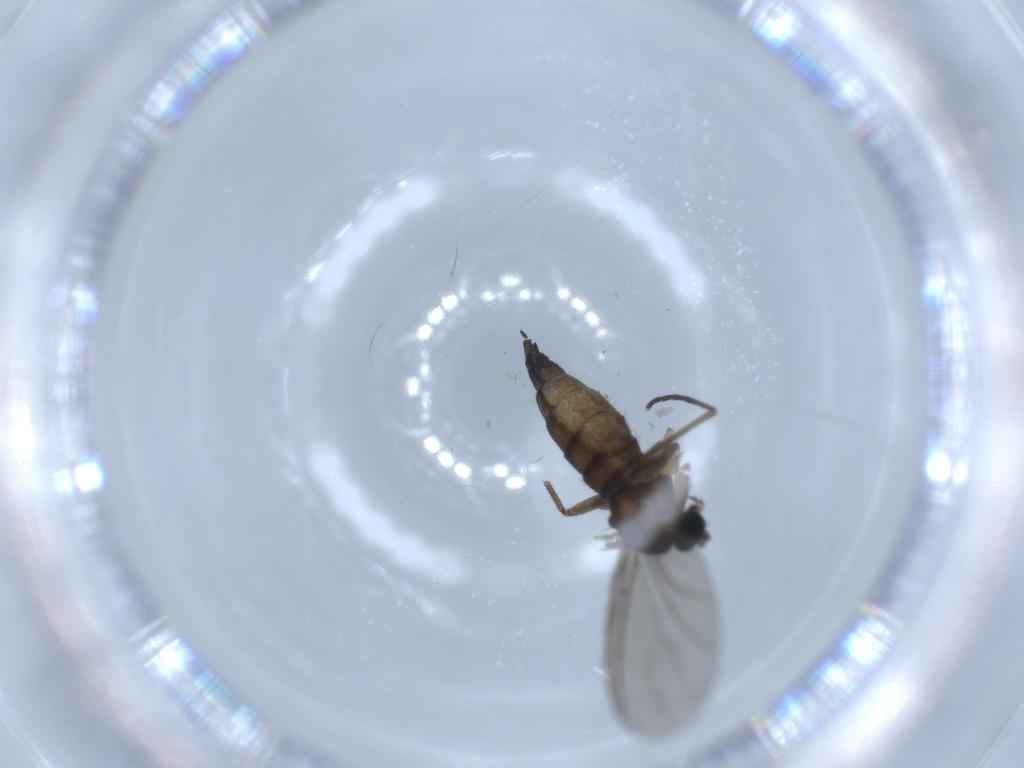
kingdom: Animalia
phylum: Arthropoda
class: Insecta
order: Diptera
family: Sciaridae
